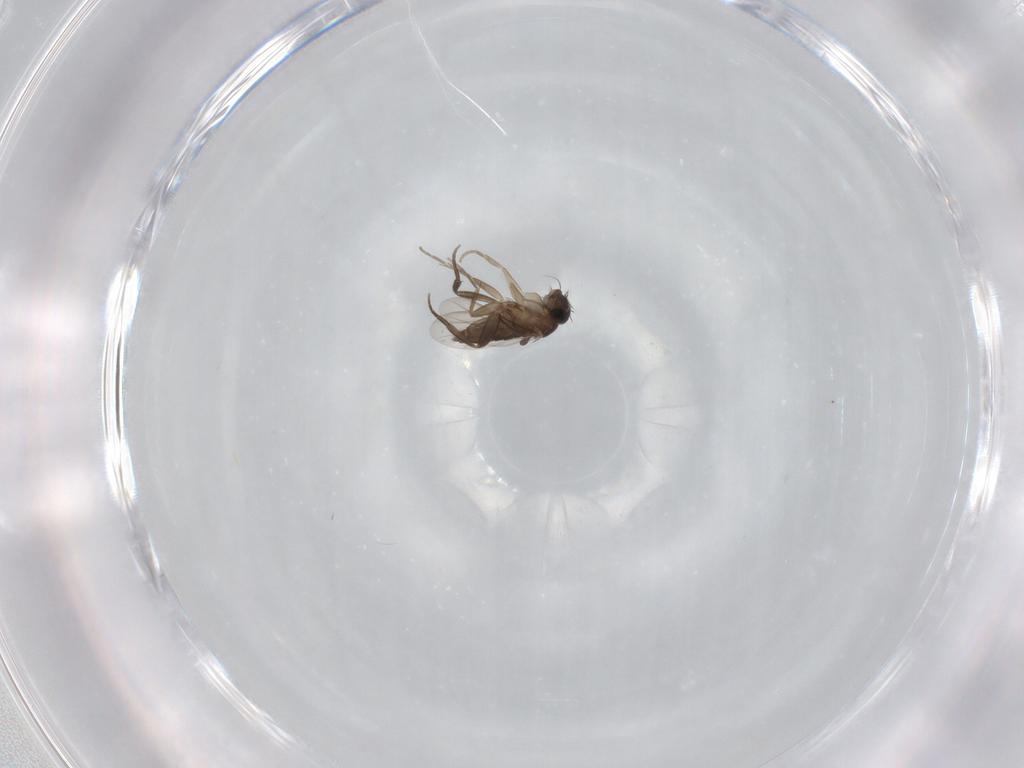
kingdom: Animalia
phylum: Arthropoda
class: Insecta
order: Diptera
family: Phoridae
